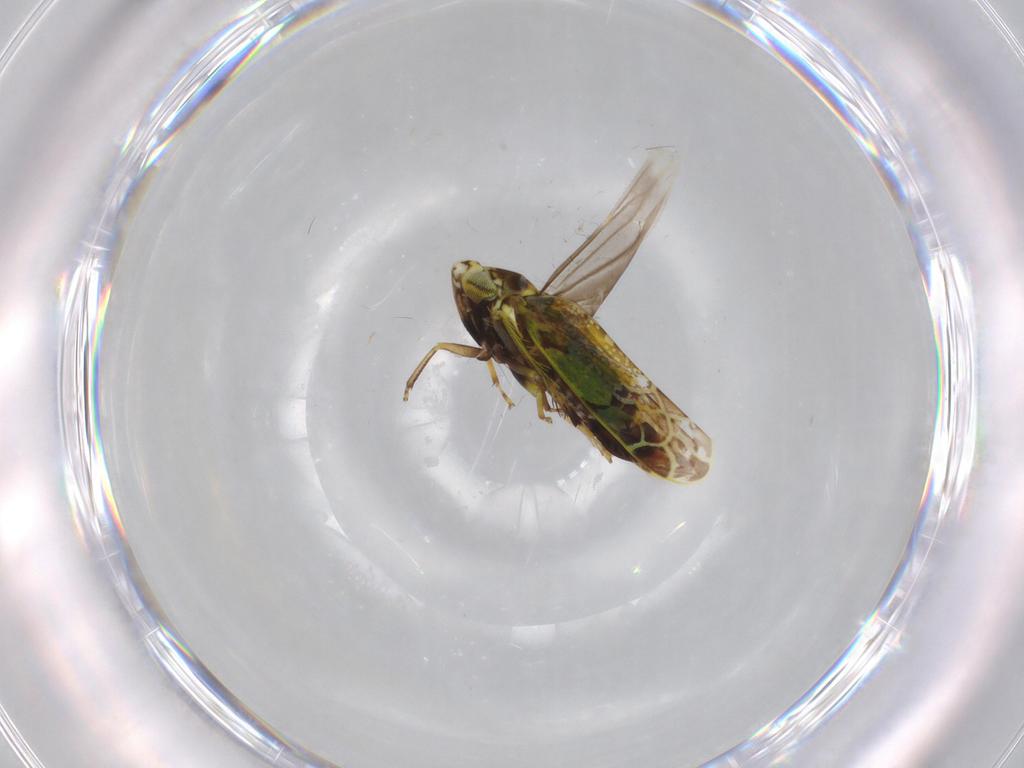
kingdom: Animalia
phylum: Arthropoda
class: Insecta
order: Hemiptera
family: Cicadellidae
